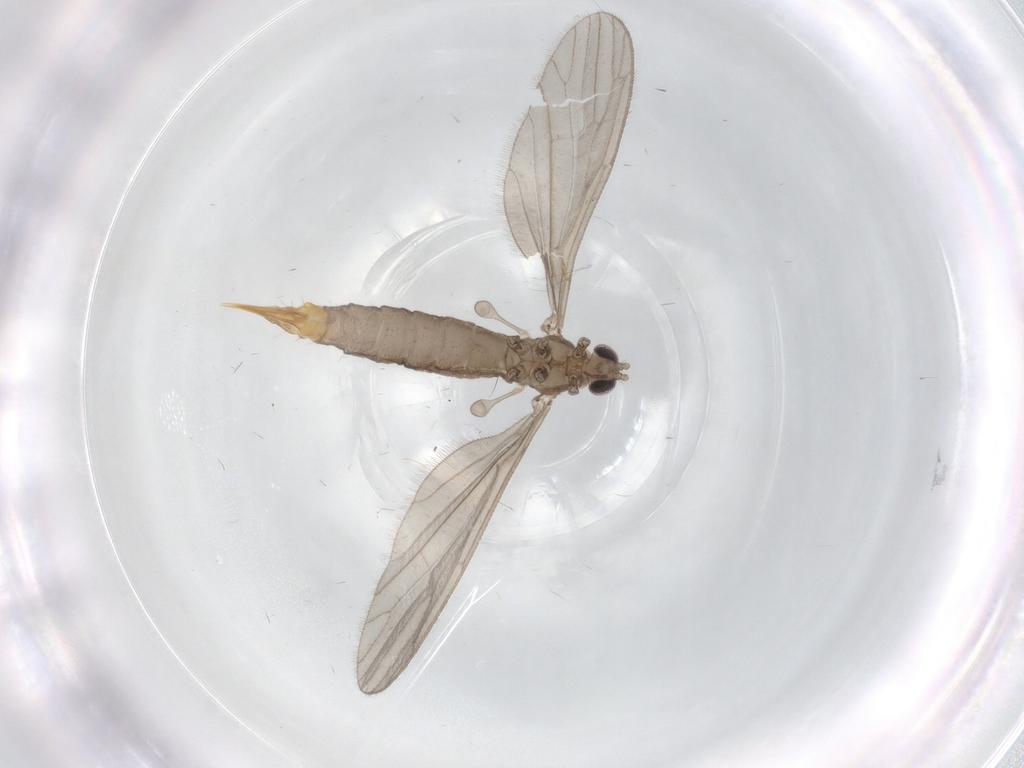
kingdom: Animalia
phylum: Arthropoda
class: Insecta
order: Diptera
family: Limoniidae
